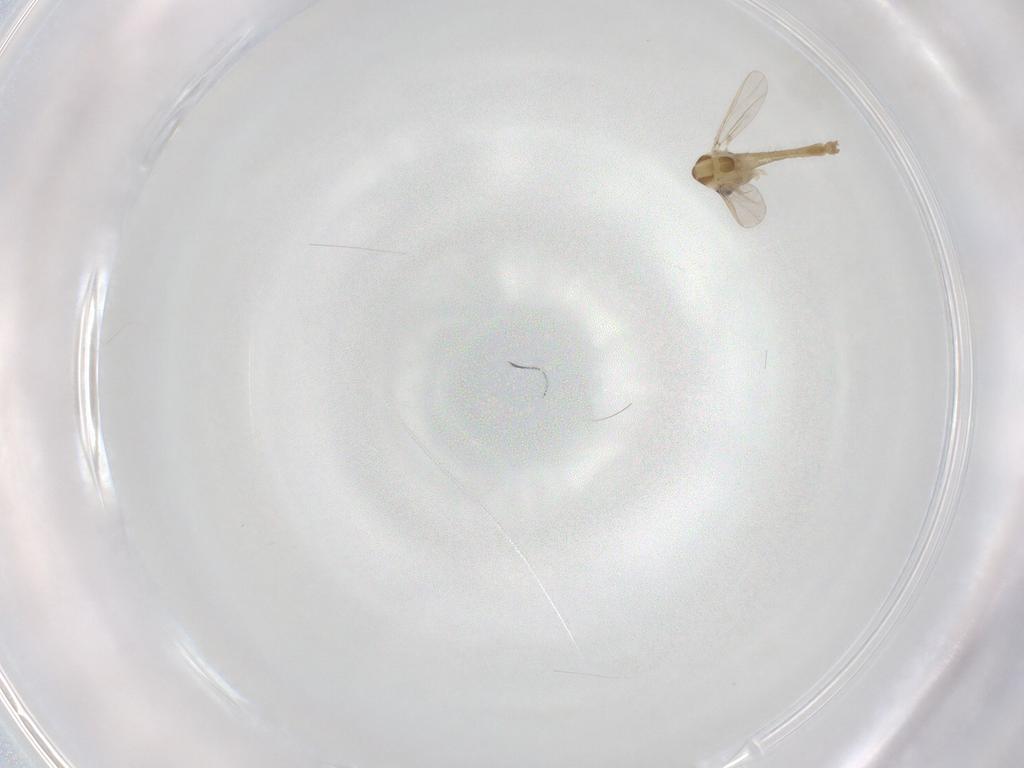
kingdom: Animalia
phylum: Arthropoda
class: Insecta
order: Diptera
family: Chironomidae
